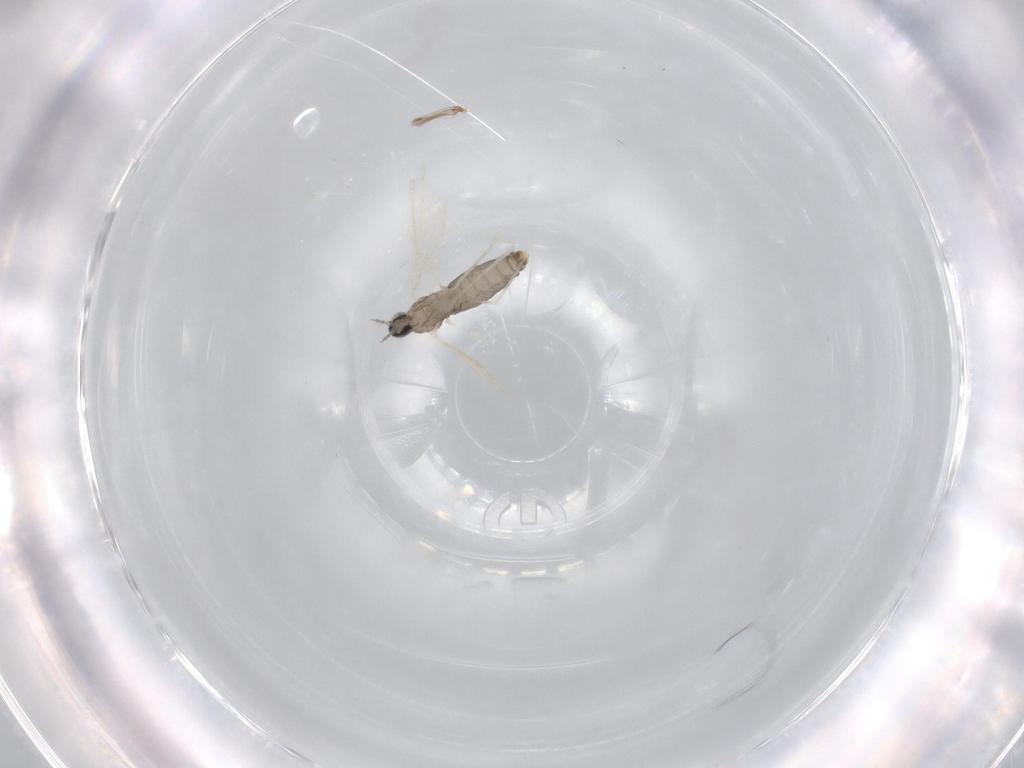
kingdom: Animalia
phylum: Arthropoda
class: Insecta
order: Diptera
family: Cecidomyiidae
